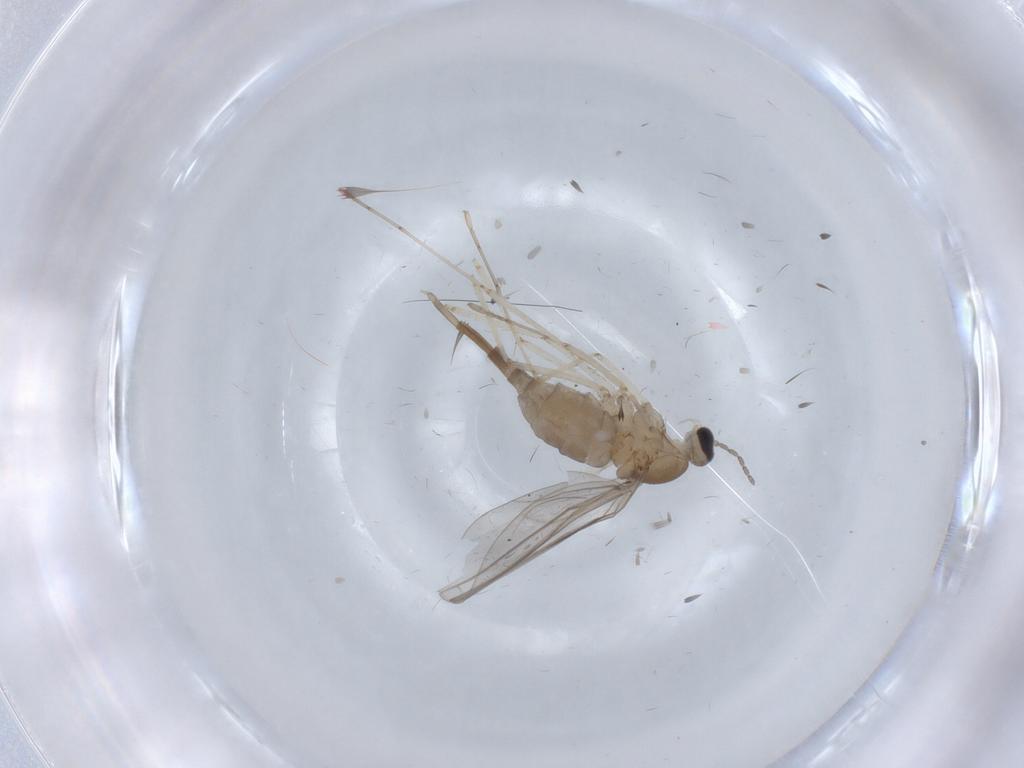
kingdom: Animalia
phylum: Arthropoda
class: Insecta
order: Diptera
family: Cecidomyiidae
